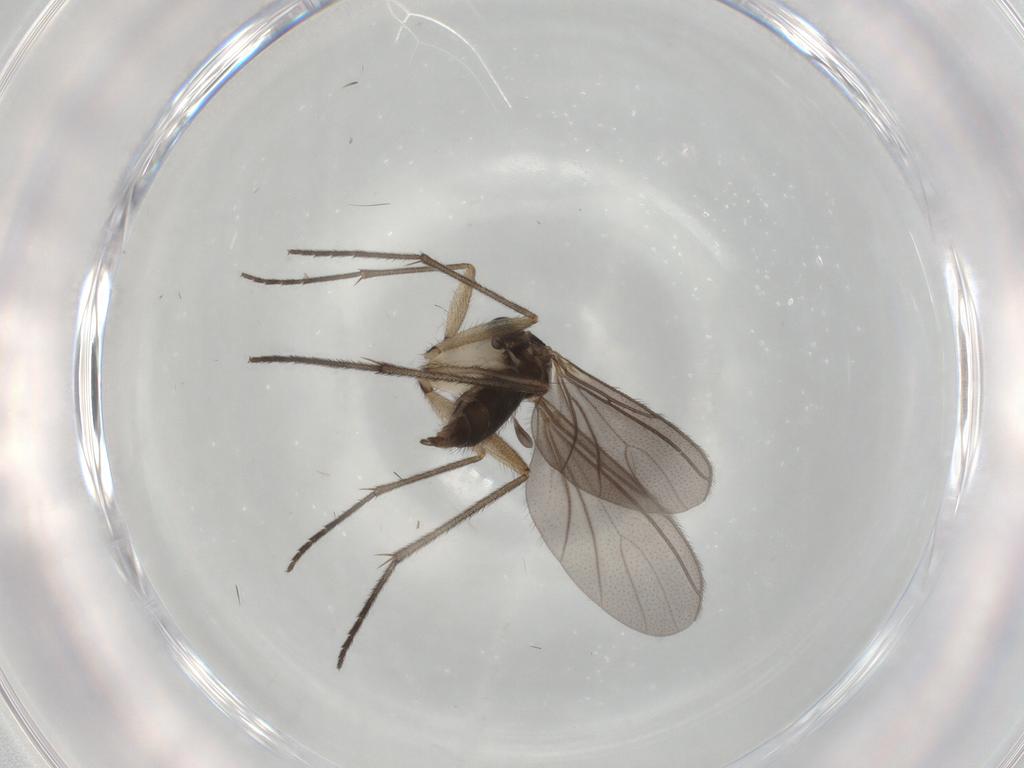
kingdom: Animalia
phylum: Arthropoda
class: Insecta
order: Diptera
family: Sciaridae
